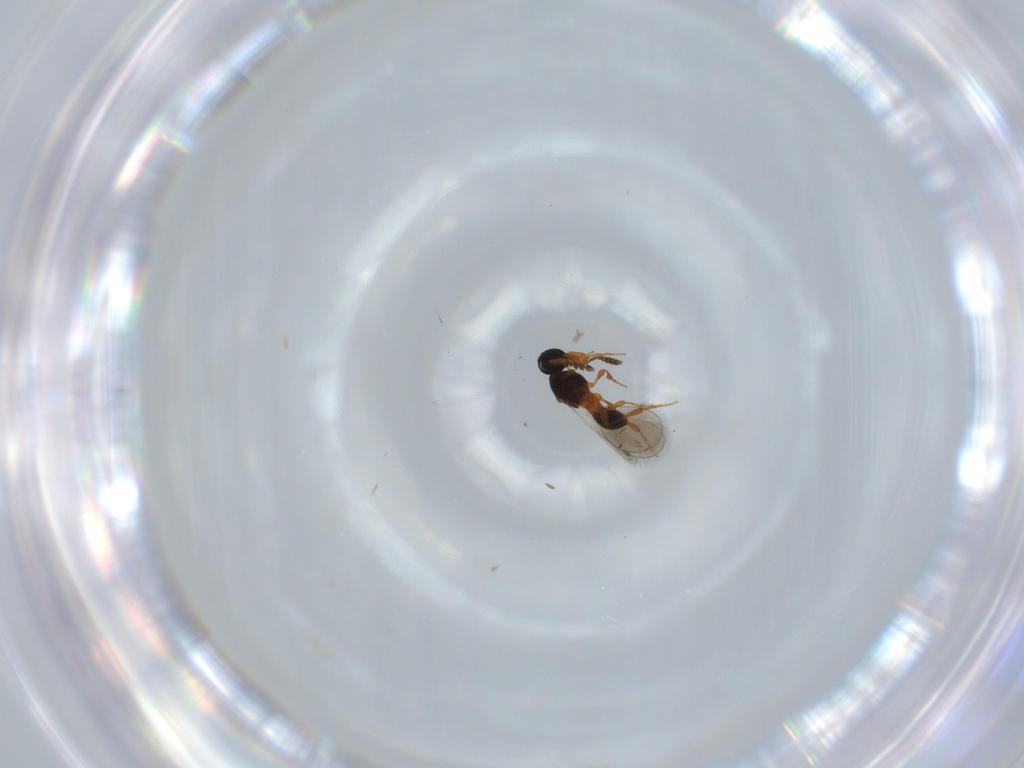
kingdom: Animalia
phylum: Arthropoda
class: Insecta
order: Hymenoptera
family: Platygastridae
